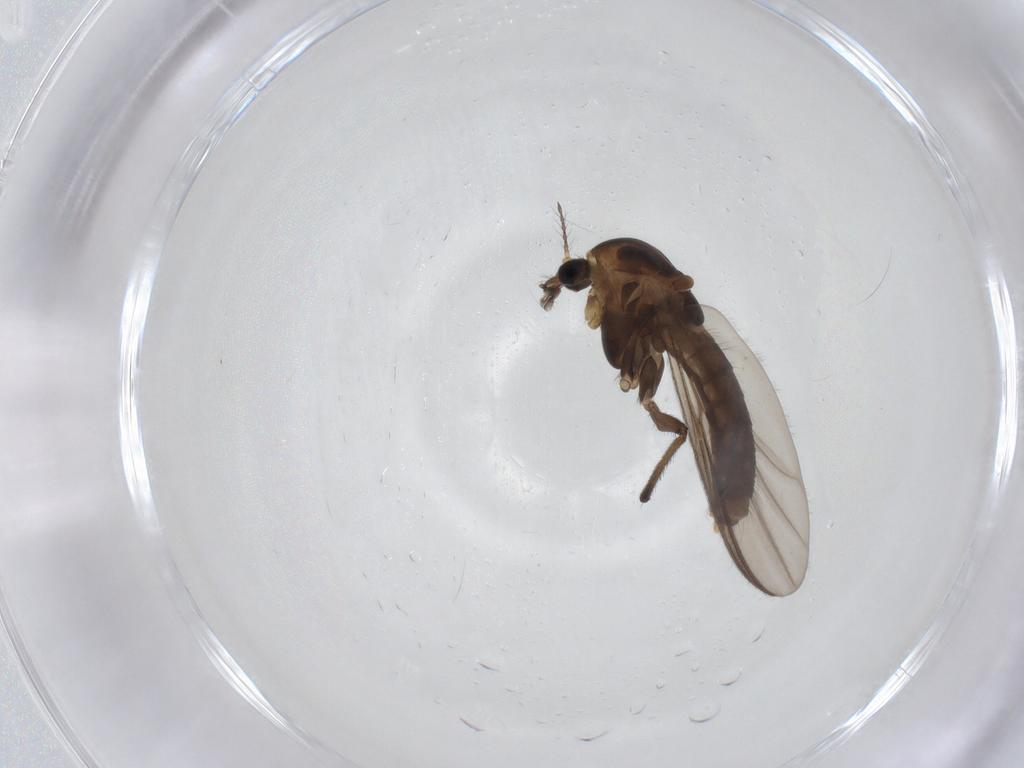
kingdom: Animalia
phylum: Arthropoda
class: Insecta
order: Diptera
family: Chironomidae
